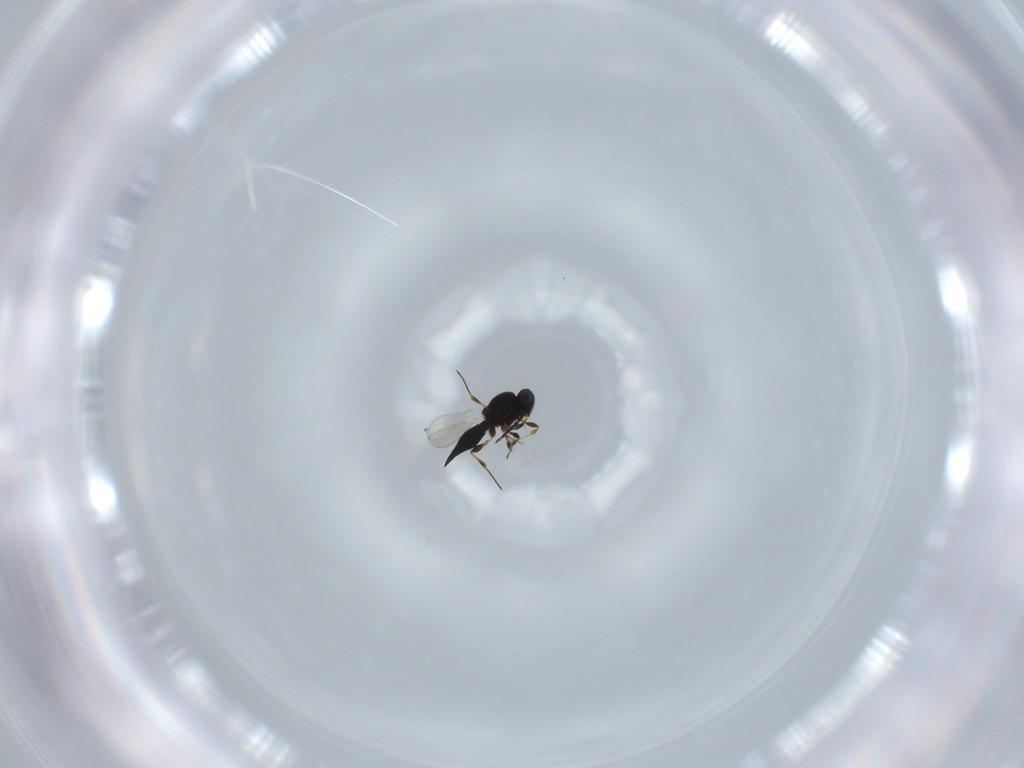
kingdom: Animalia
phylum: Arthropoda
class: Insecta
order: Hymenoptera
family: Platygastridae
